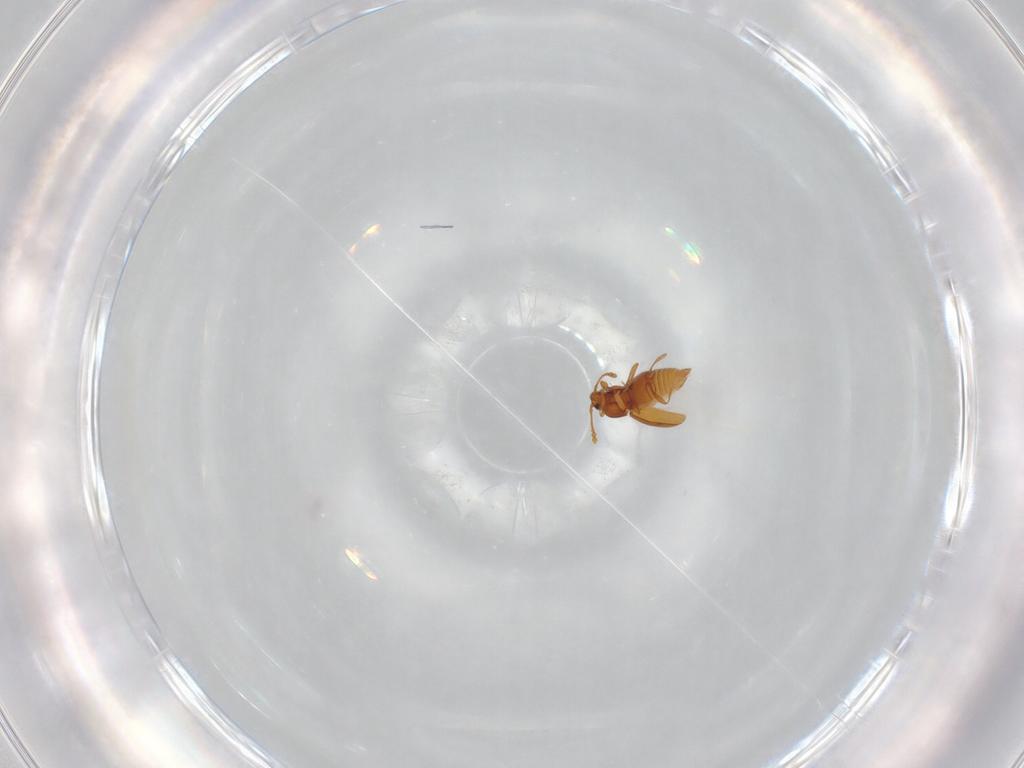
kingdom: Animalia
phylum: Arthropoda
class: Insecta
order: Coleoptera
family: Staphylinidae
